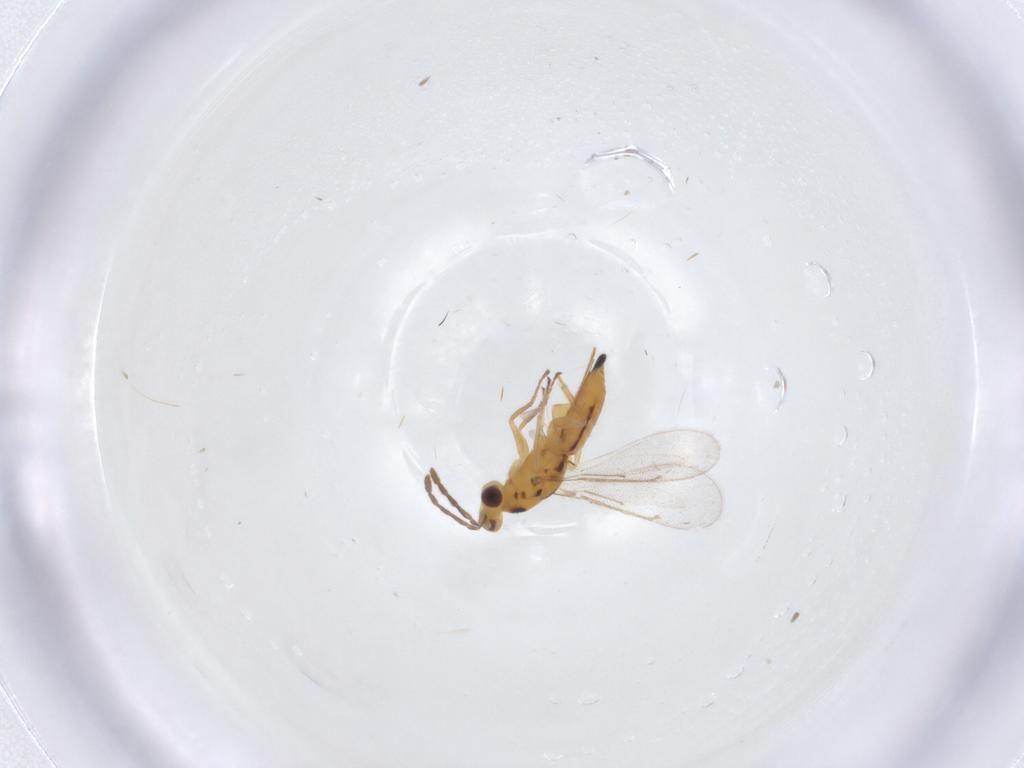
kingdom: Animalia
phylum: Arthropoda
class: Insecta
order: Hymenoptera
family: Eulophidae
